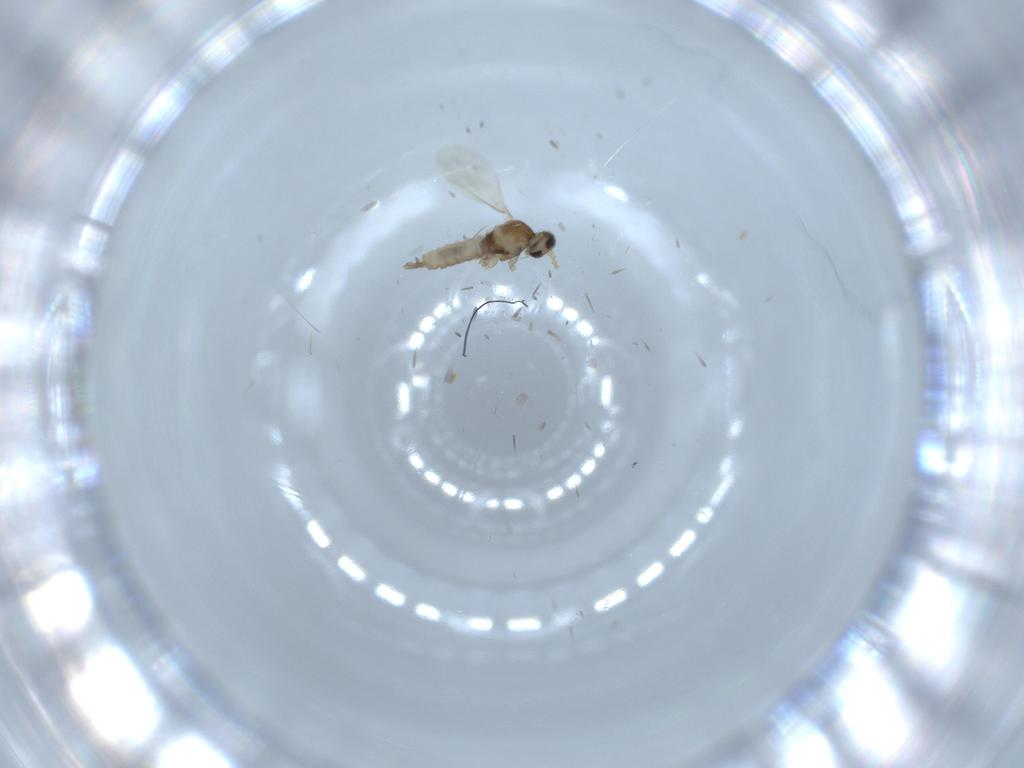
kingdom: Animalia
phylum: Arthropoda
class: Insecta
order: Diptera
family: Cecidomyiidae
